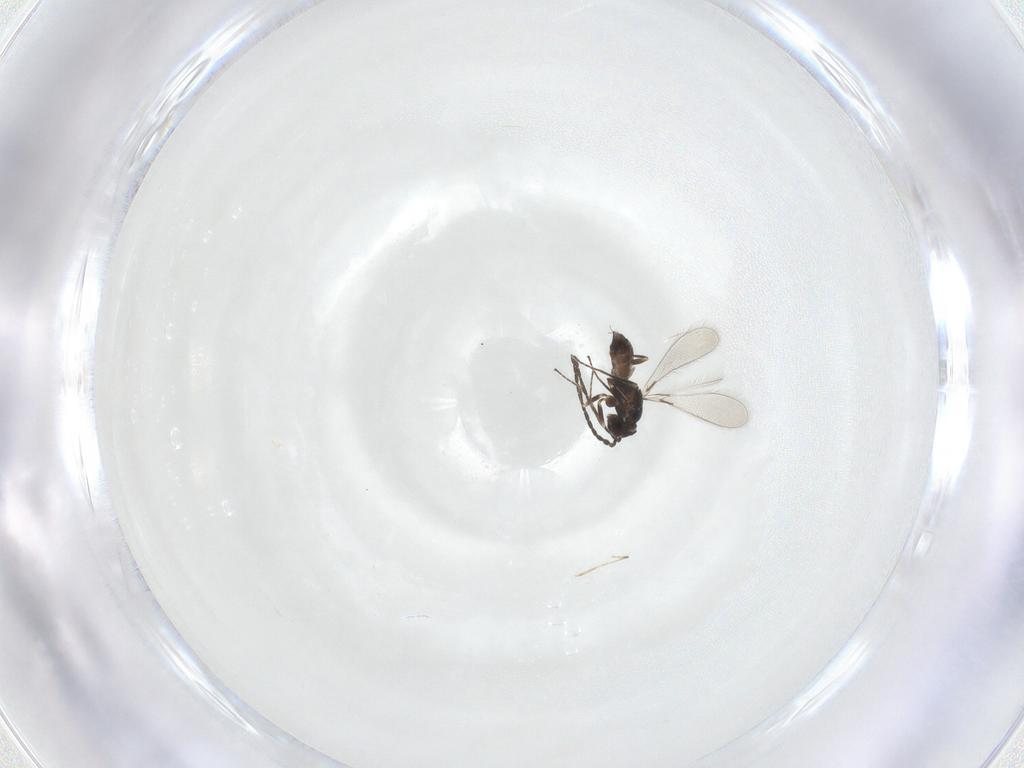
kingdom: Animalia
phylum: Arthropoda
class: Insecta
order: Hymenoptera
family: Mymaridae
